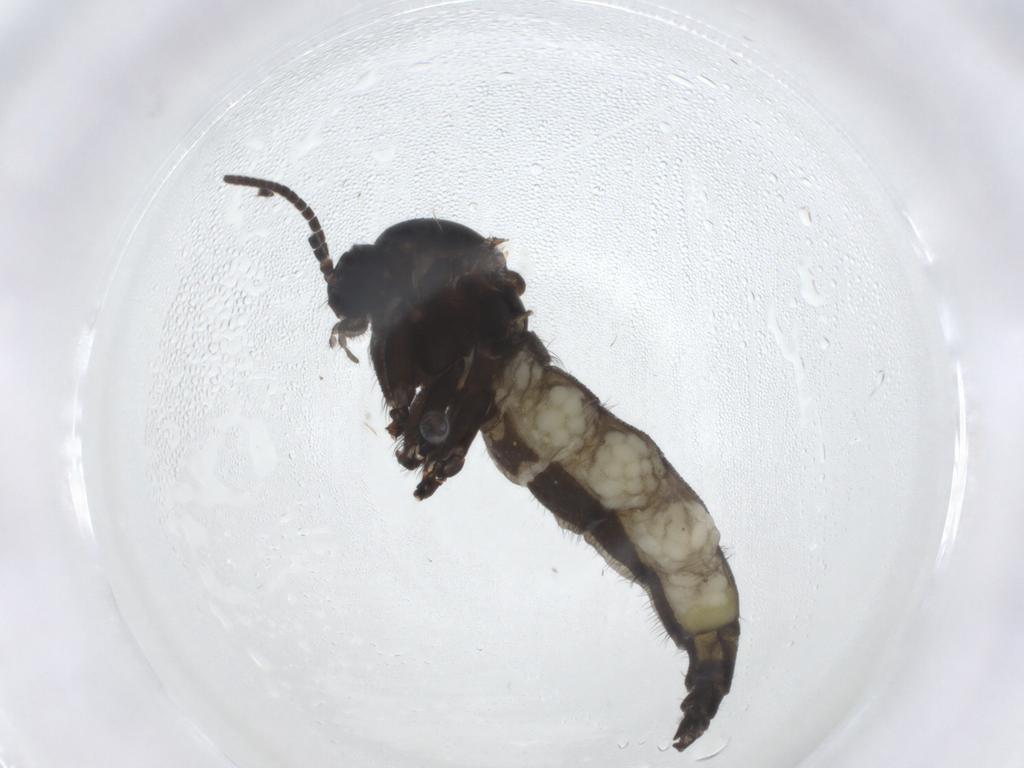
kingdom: Animalia
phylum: Arthropoda
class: Insecta
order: Diptera
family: Sciaridae
